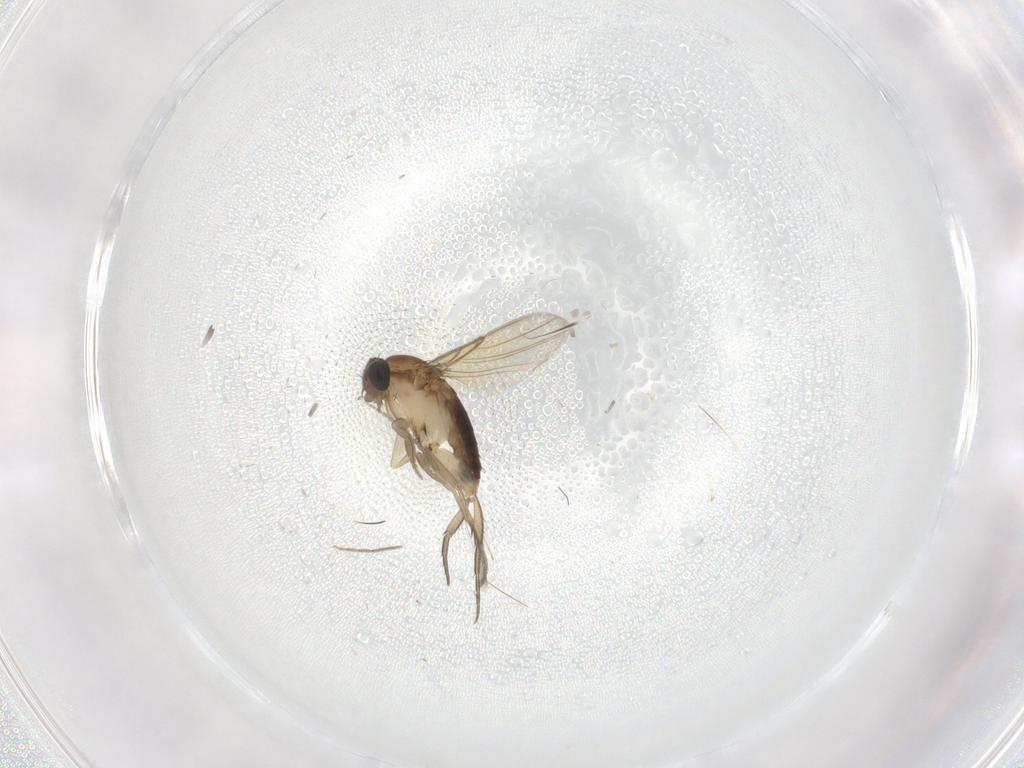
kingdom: Animalia
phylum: Arthropoda
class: Insecta
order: Diptera
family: Phoridae
